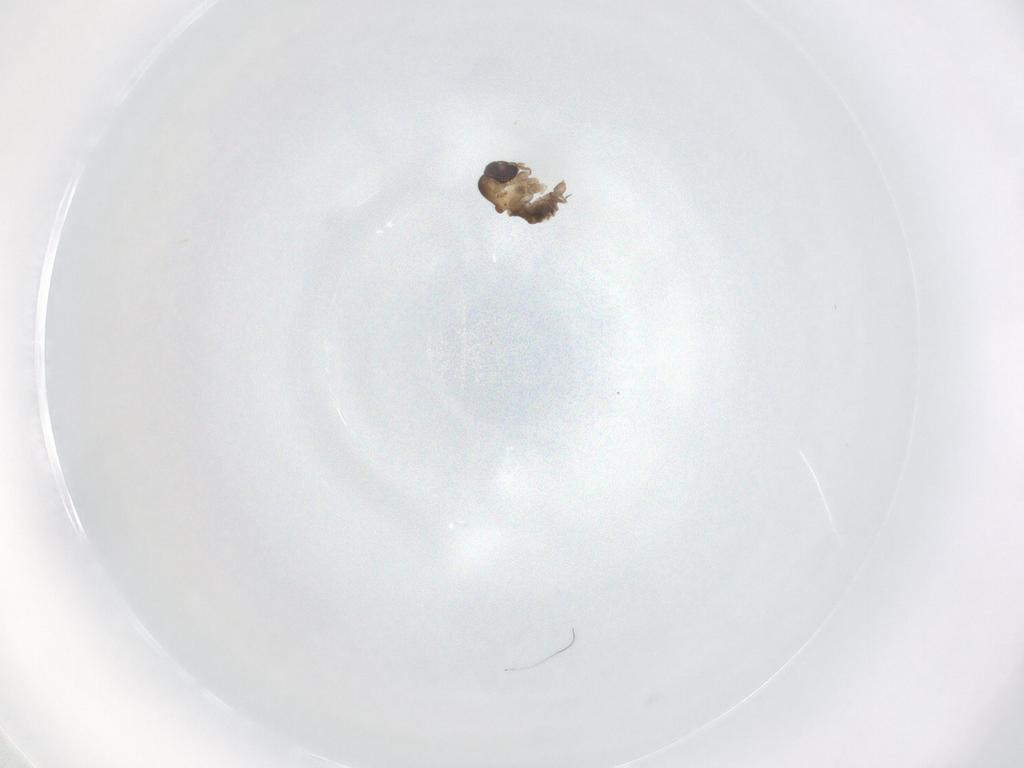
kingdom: Animalia
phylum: Arthropoda
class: Insecta
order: Diptera
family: Psychodidae
